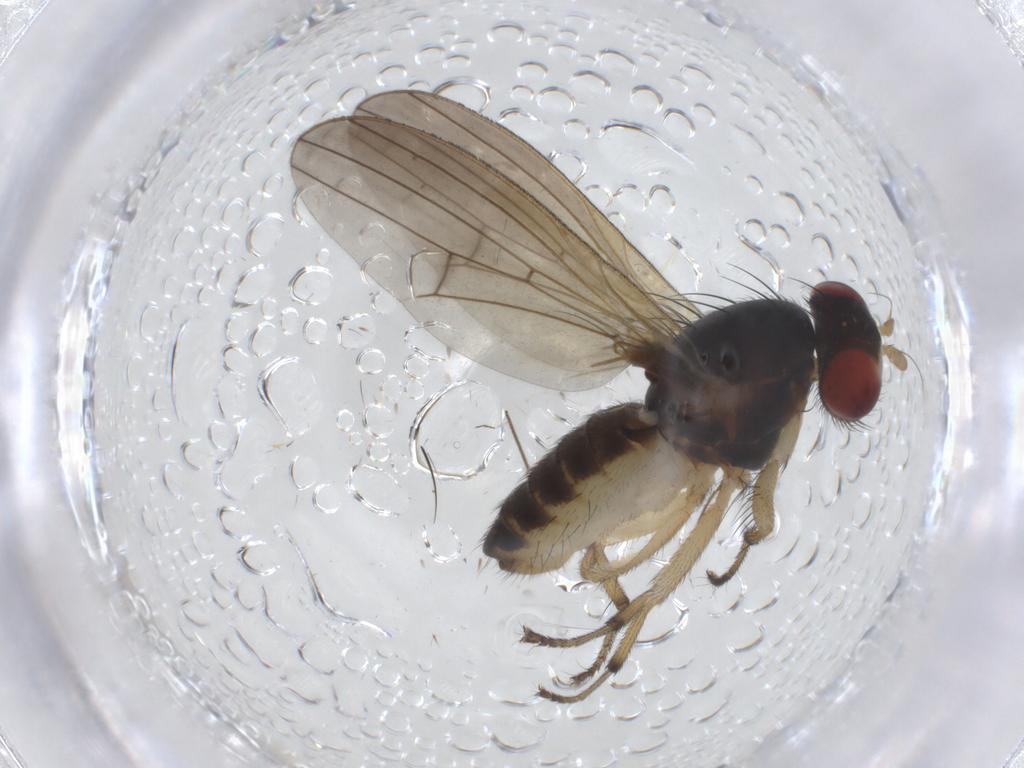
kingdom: Animalia
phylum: Arthropoda
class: Insecta
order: Diptera
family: Chironomidae
